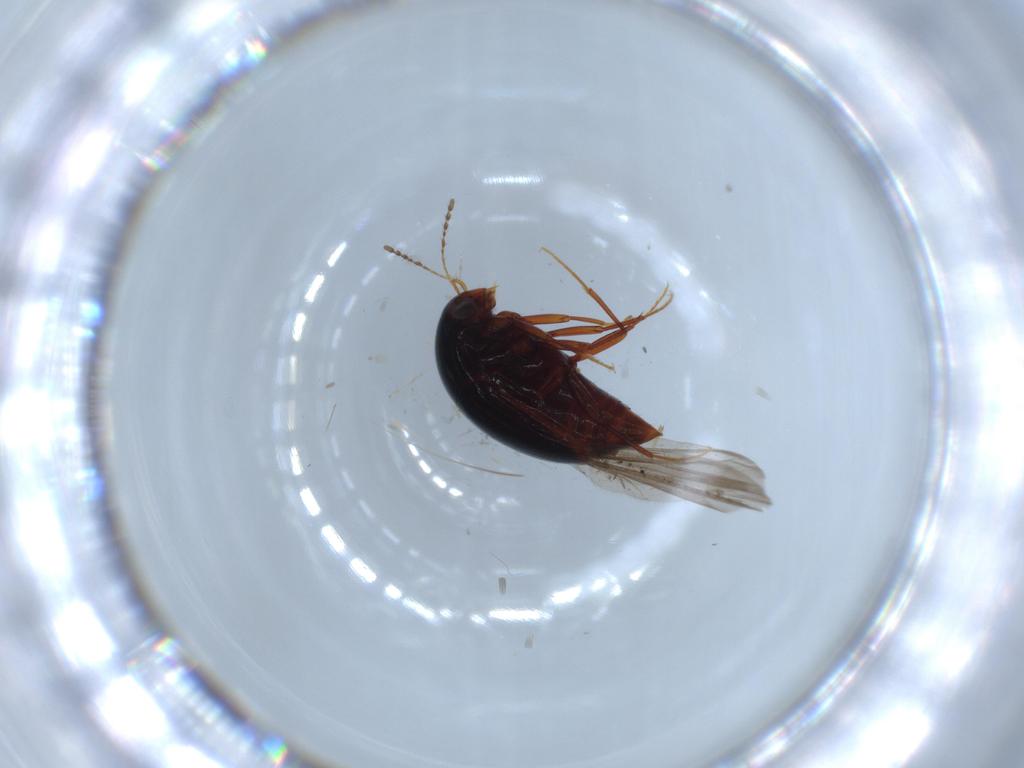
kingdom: Animalia
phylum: Arthropoda
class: Insecta
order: Coleoptera
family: Staphylinidae
